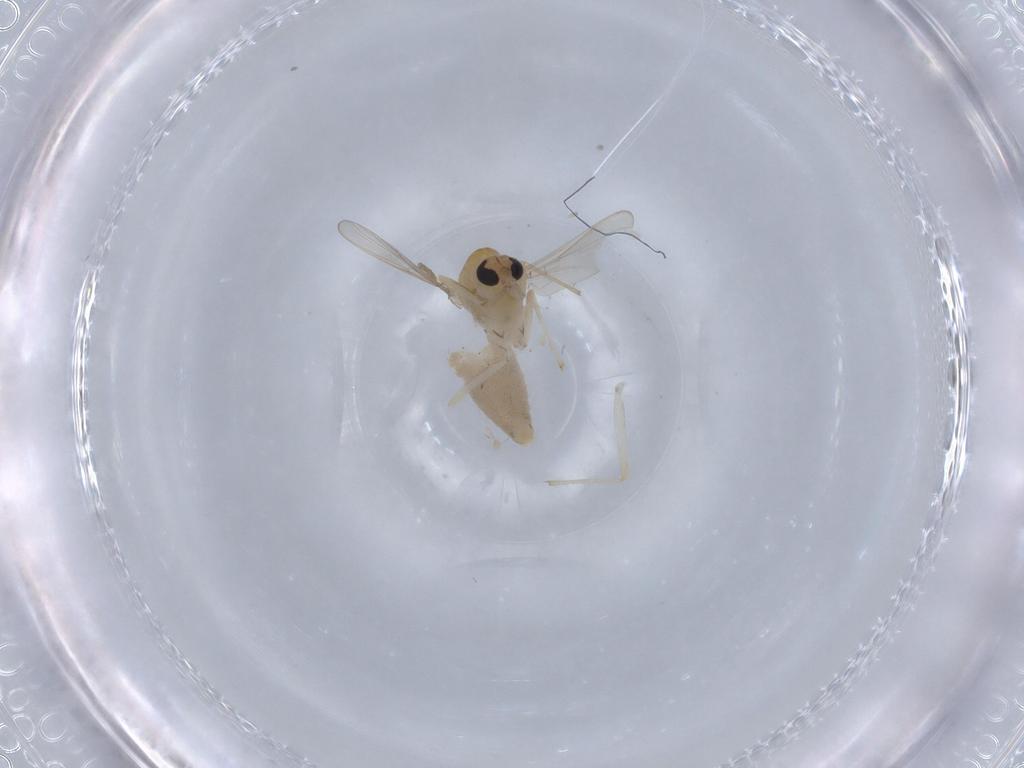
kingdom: Animalia
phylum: Arthropoda
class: Insecta
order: Diptera
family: Chironomidae
